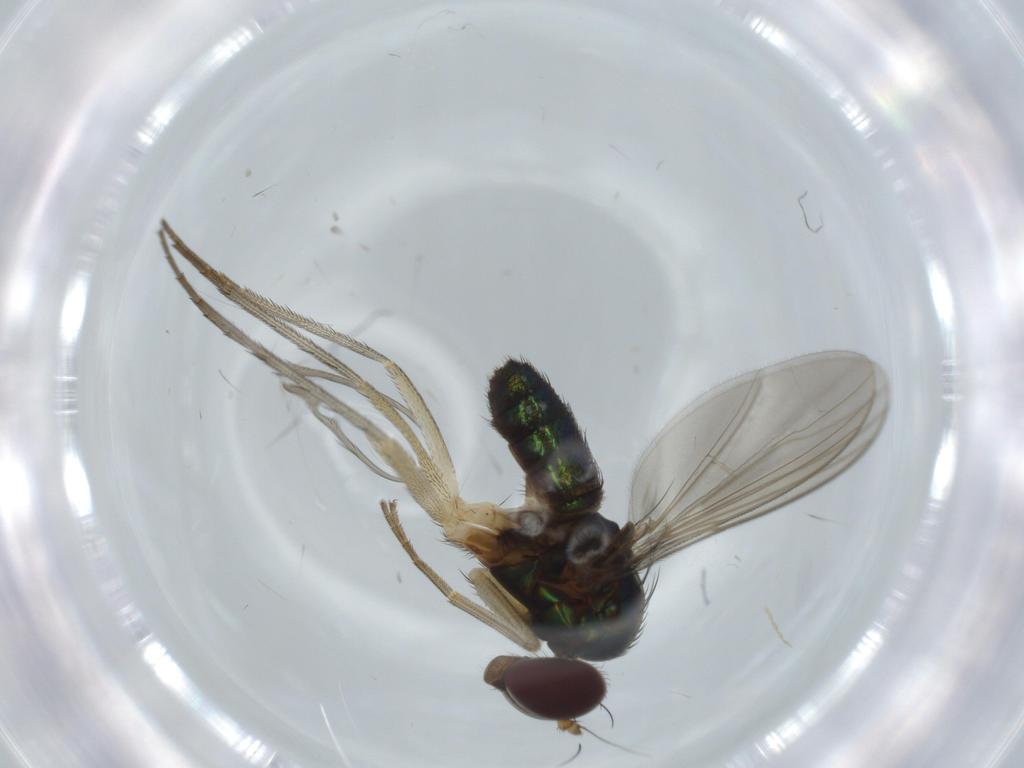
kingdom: Animalia
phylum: Arthropoda
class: Insecta
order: Diptera
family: Dolichopodidae
